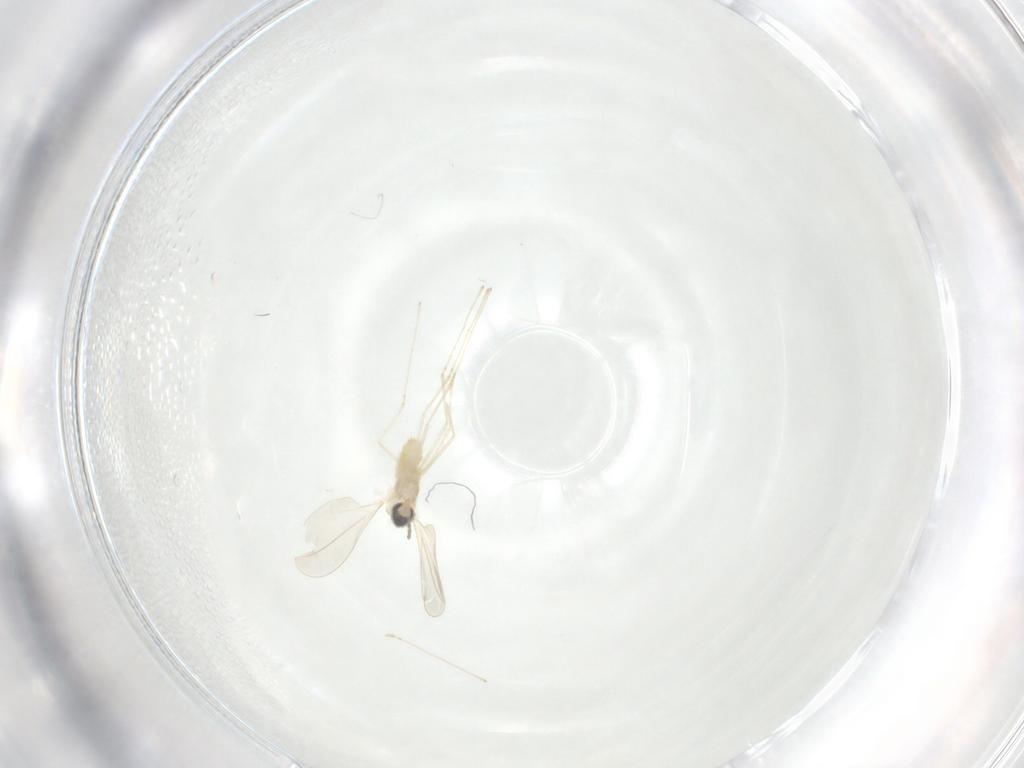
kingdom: Animalia
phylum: Arthropoda
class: Insecta
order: Diptera
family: Cecidomyiidae
